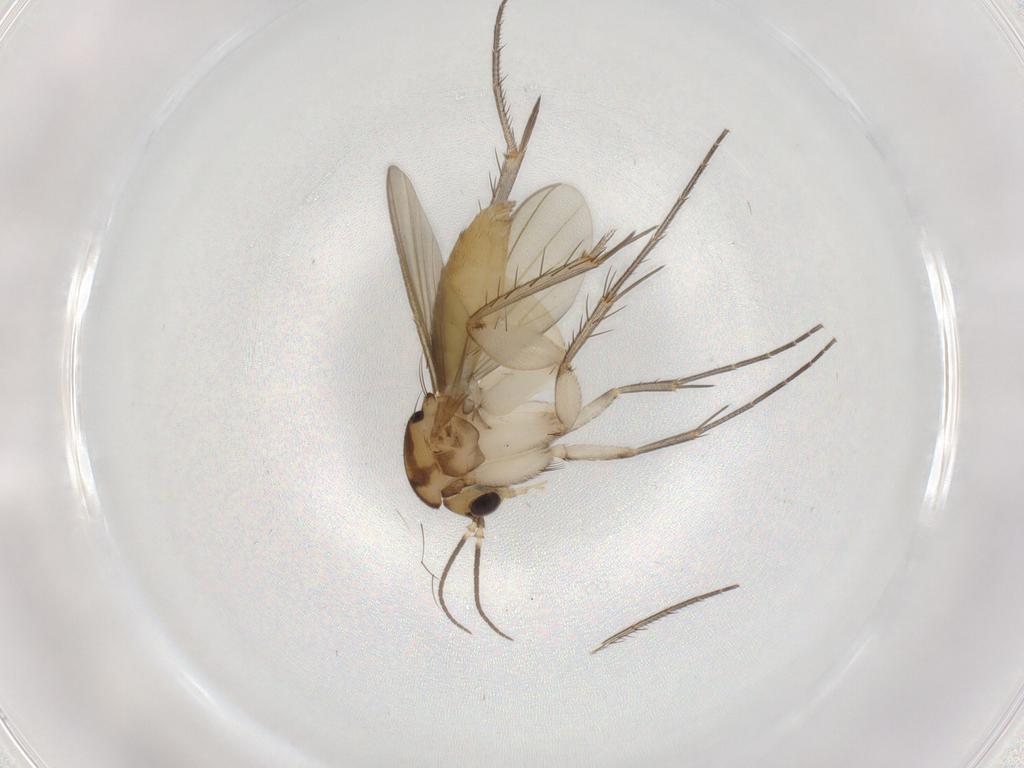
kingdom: Animalia
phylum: Arthropoda
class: Insecta
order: Diptera
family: Mycetophilidae
